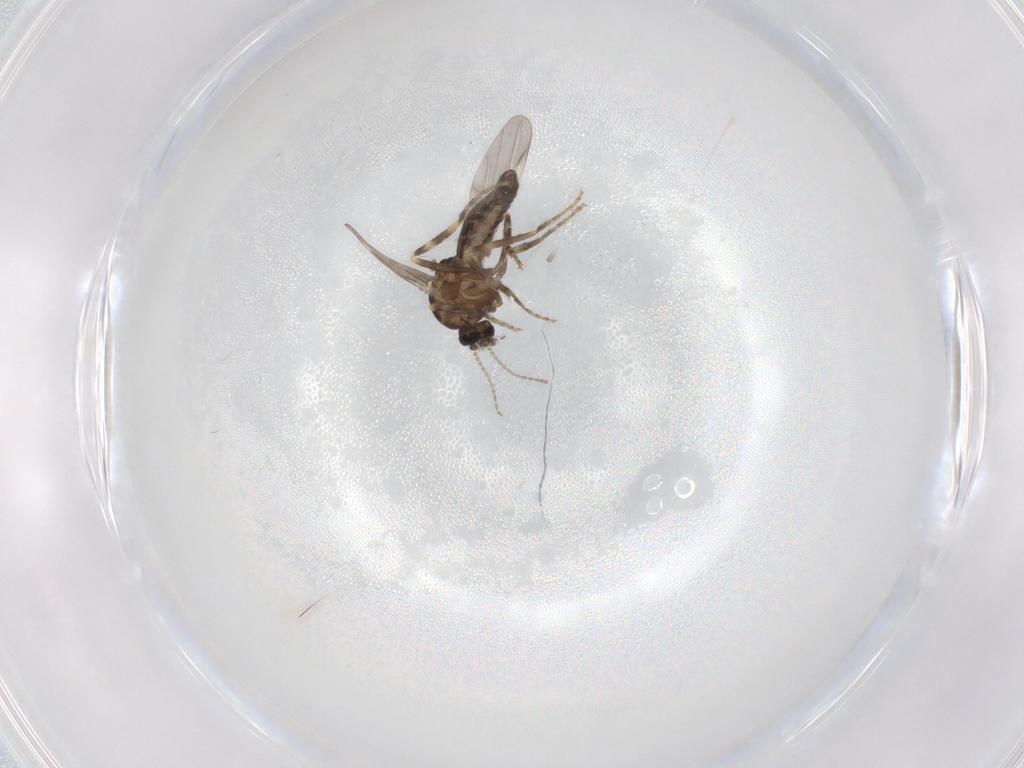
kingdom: Animalia
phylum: Arthropoda
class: Insecta
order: Diptera
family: Ceratopogonidae
